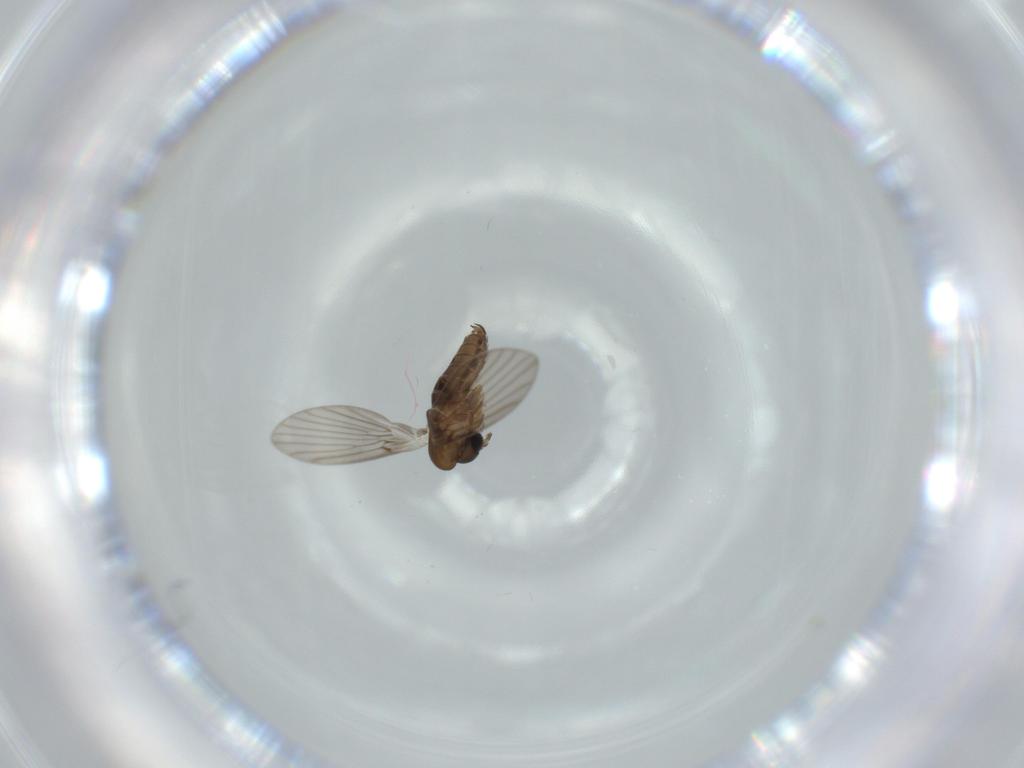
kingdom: Animalia
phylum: Arthropoda
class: Insecta
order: Diptera
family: Psychodidae
